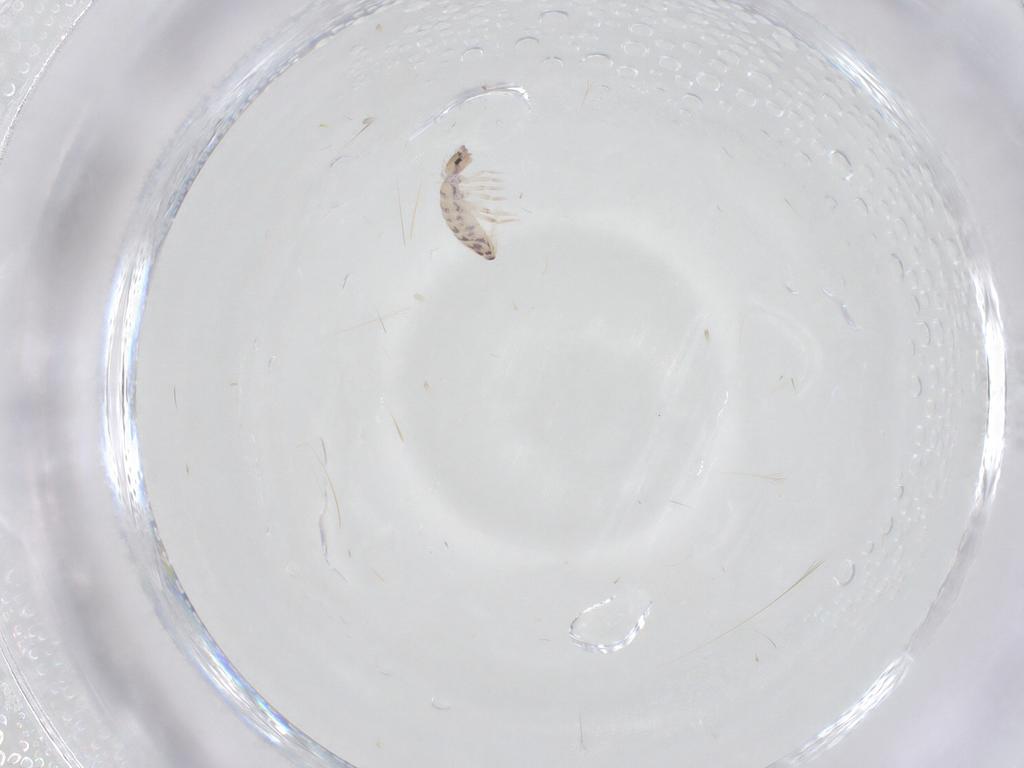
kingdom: Animalia
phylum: Arthropoda
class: Collembola
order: Entomobryomorpha
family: Entomobryidae
